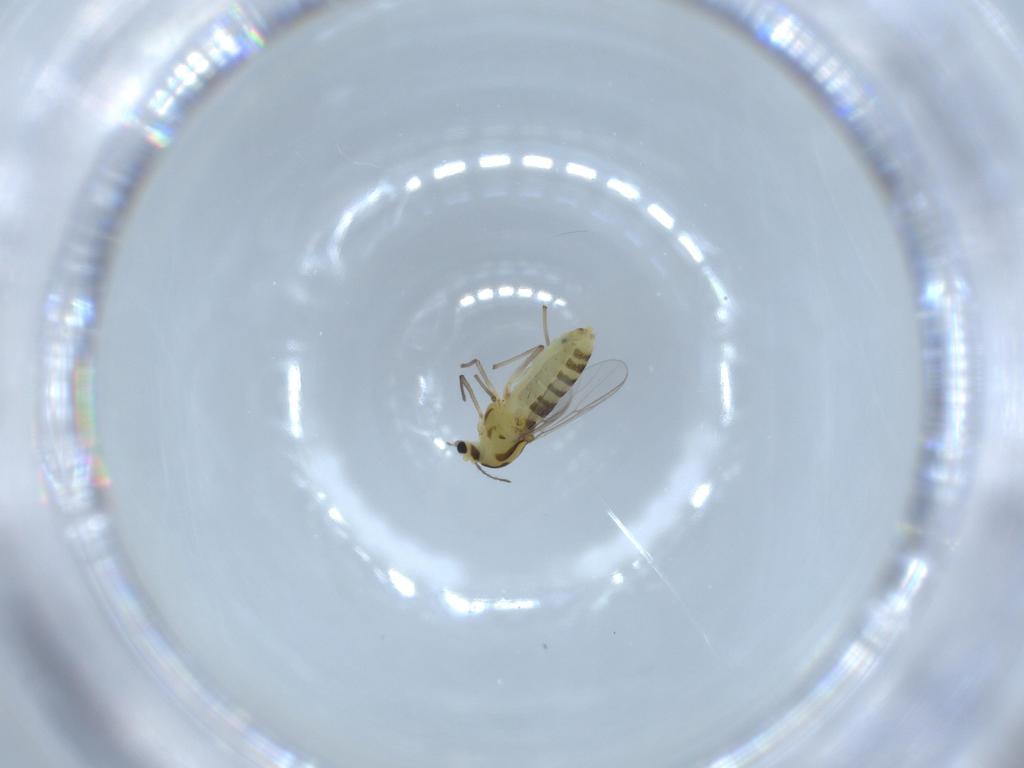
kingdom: Animalia
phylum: Arthropoda
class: Insecta
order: Diptera
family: Chironomidae
